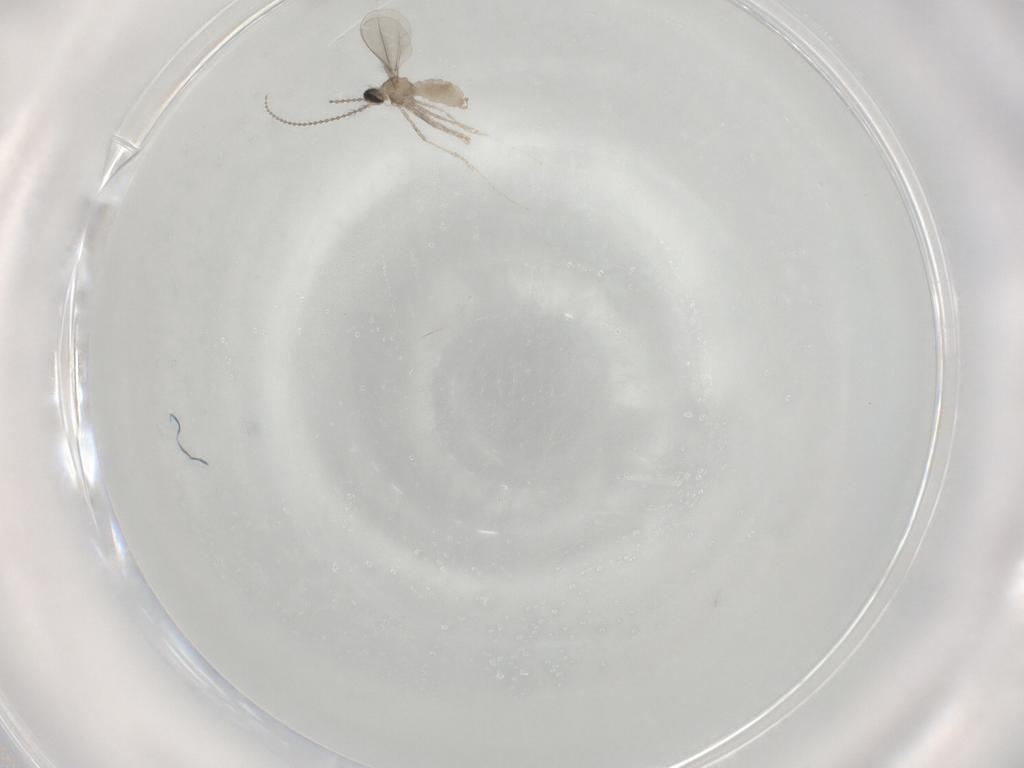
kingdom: Animalia
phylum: Arthropoda
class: Insecta
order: Diptera
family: Cecidomyiidae
